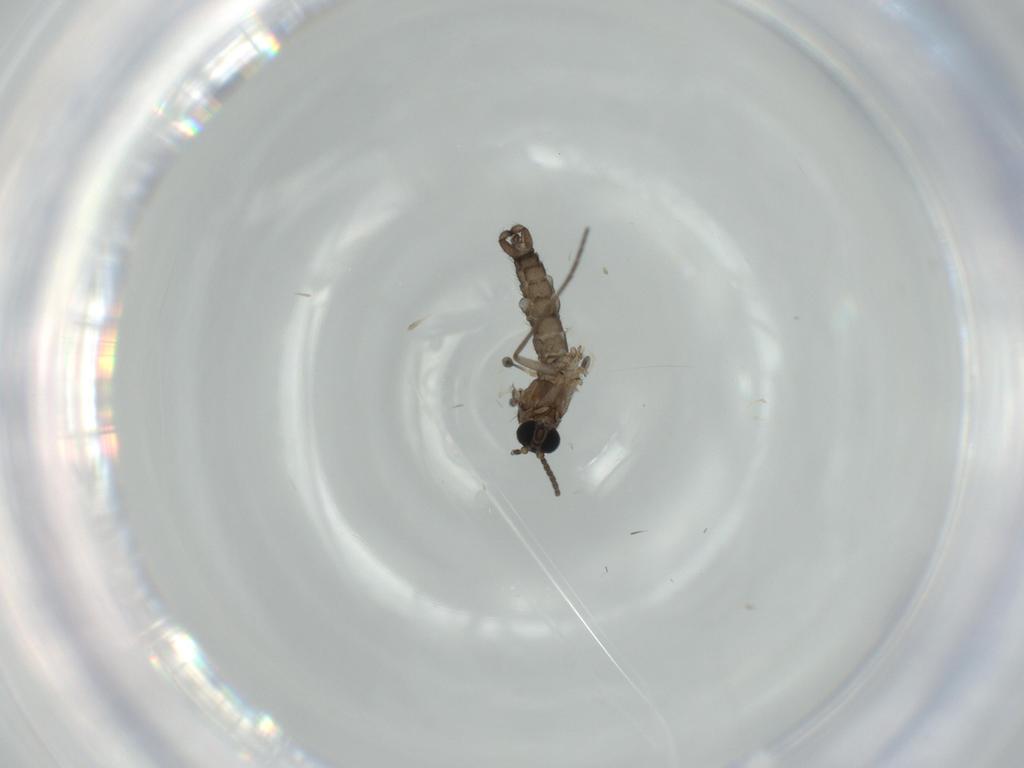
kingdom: Animalia
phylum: Arthropoda
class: Insecta
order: Diptera
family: Sciaridae
